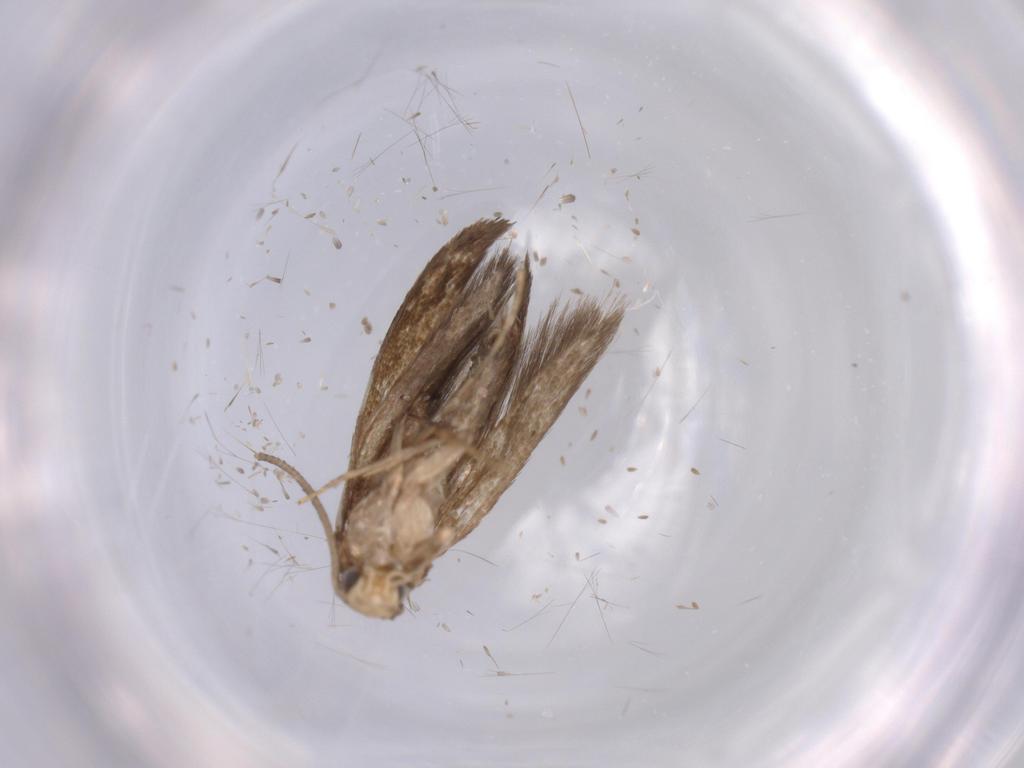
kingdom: Animalia
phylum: Arthropoda
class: Insecta
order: Lepidoptera
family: Tineidae
